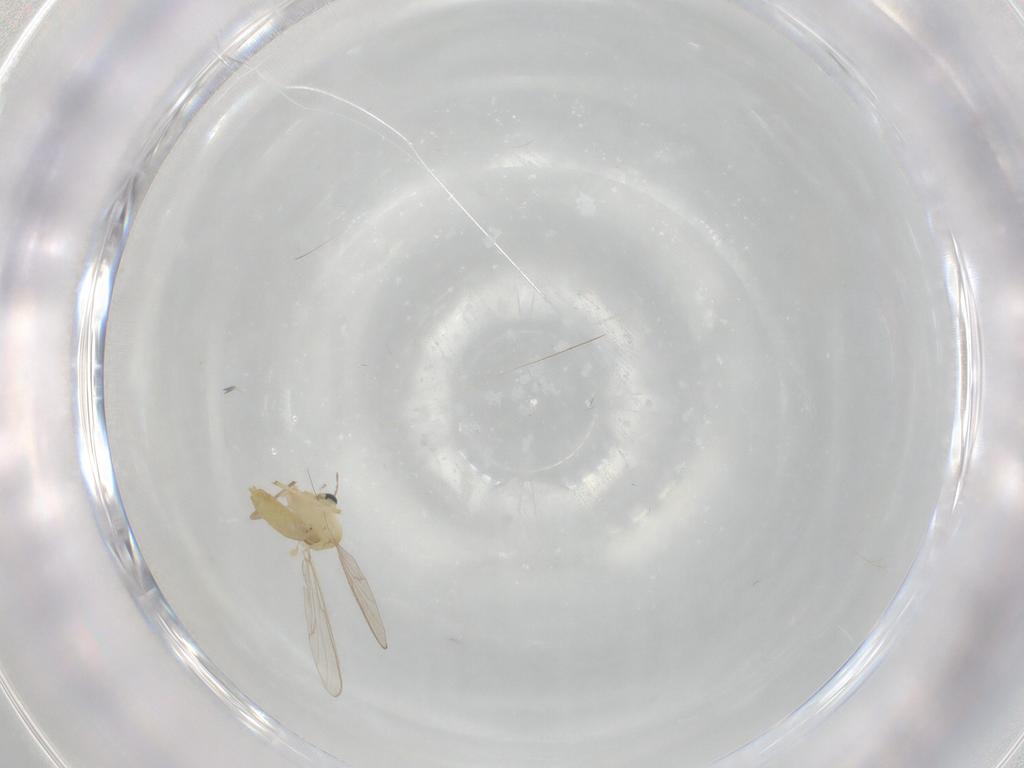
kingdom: Animalia
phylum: Arthropoda
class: Insecta
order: Diptera
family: Chironomidae
